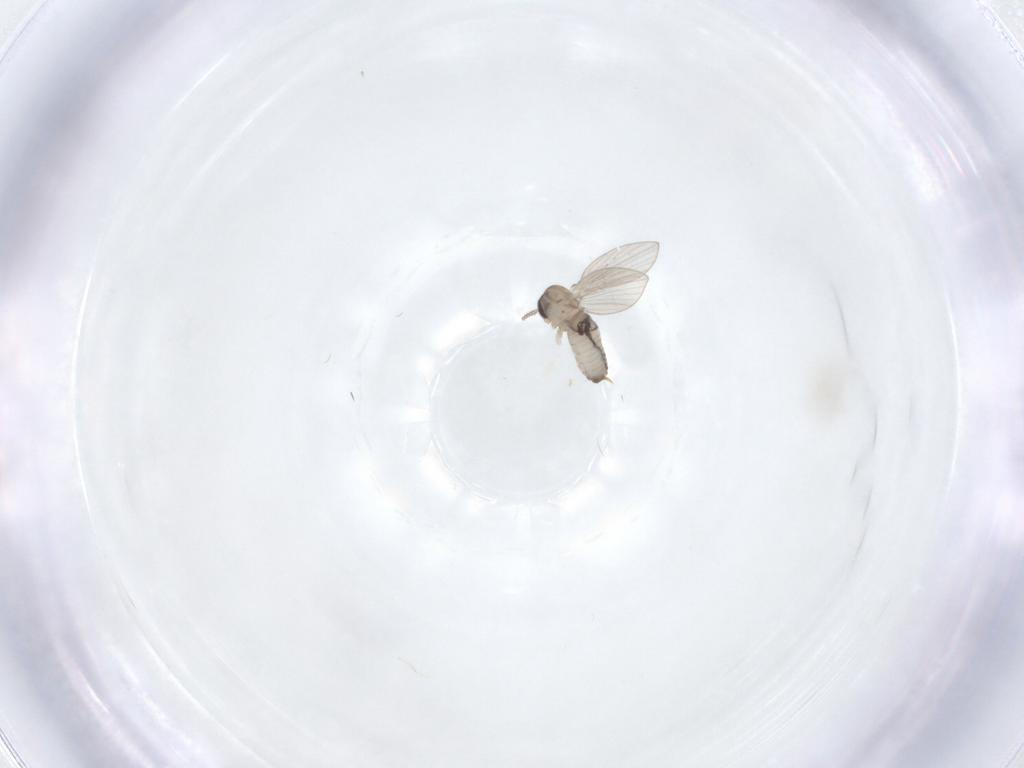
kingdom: Animalia
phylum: Arthropoda
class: Insecta
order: Diptera
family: Psychodidae
